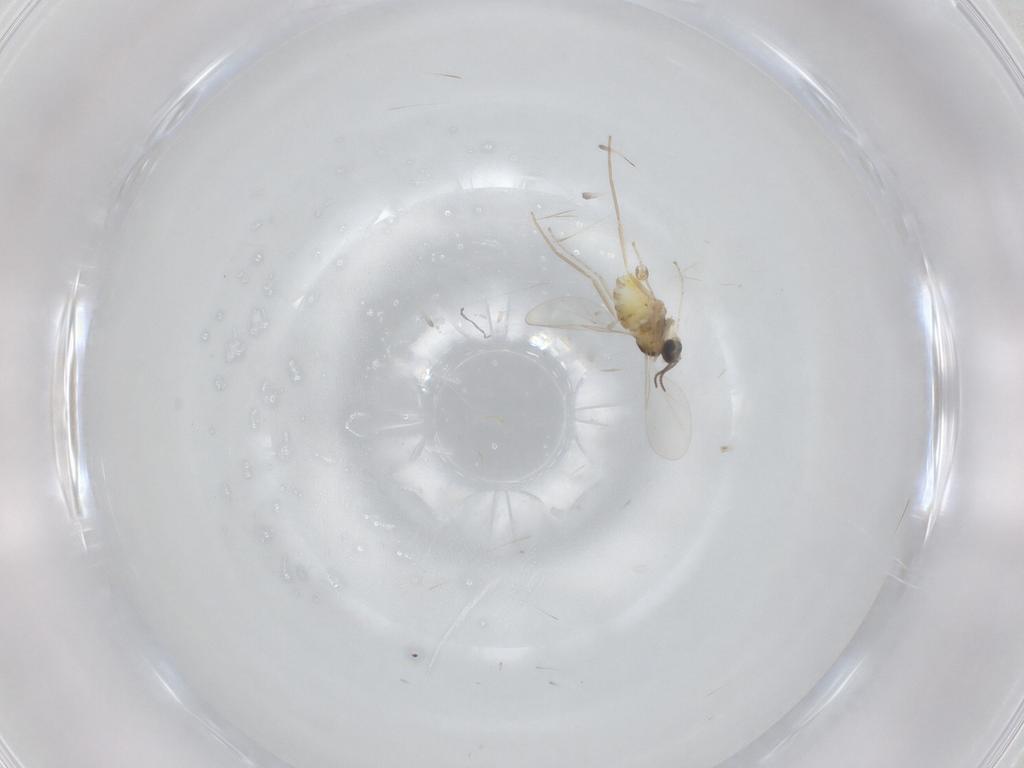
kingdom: Animalia
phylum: Arthropoda
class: Insecta
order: Diptera
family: Cecidomyiidae
